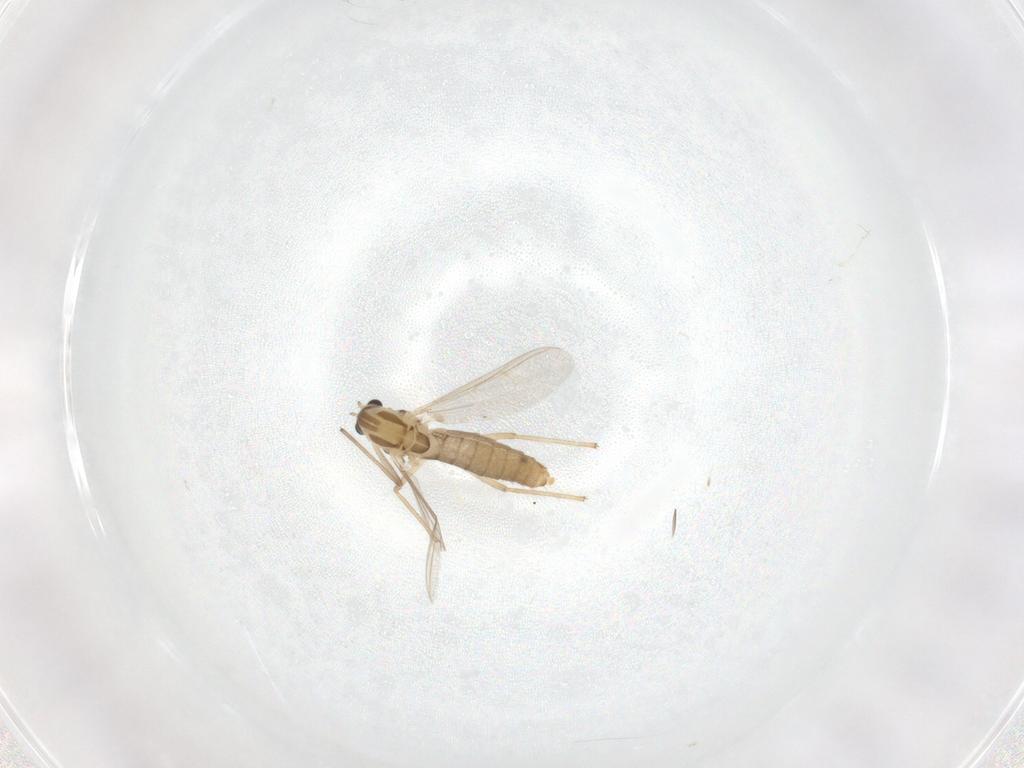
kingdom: Animalia
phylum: Arthropoda
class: Insecta
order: Diptera
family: Chironomidae
